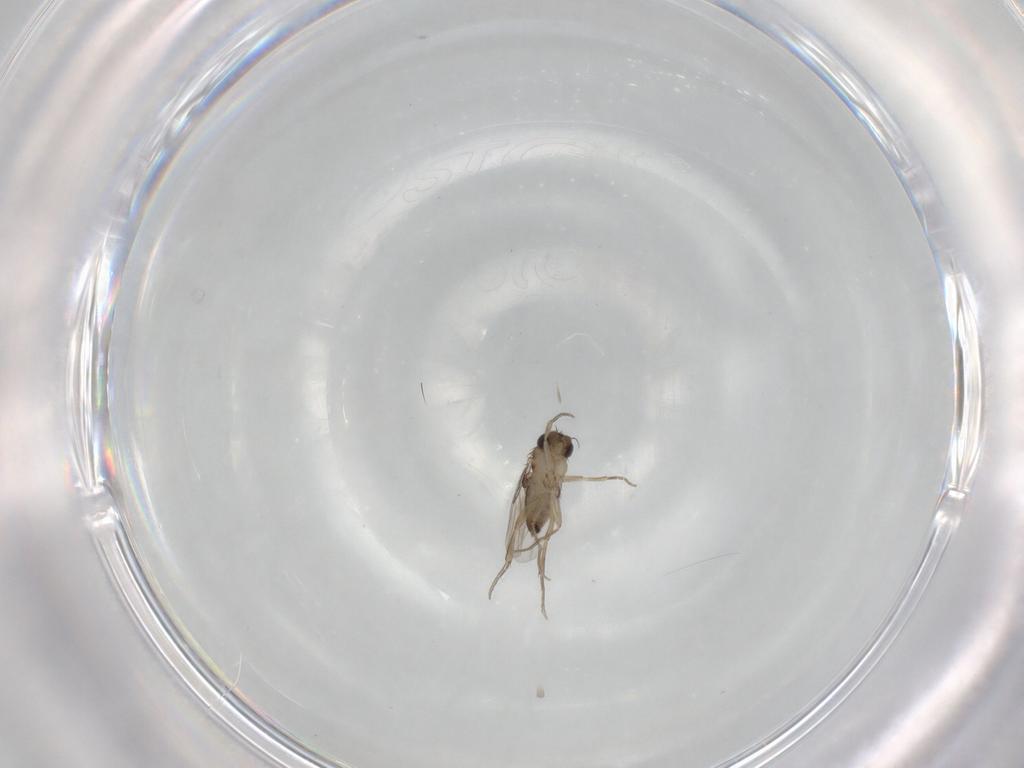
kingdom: Animalia
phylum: Arthropoda
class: Insecta
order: Diptera
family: Phoridae
